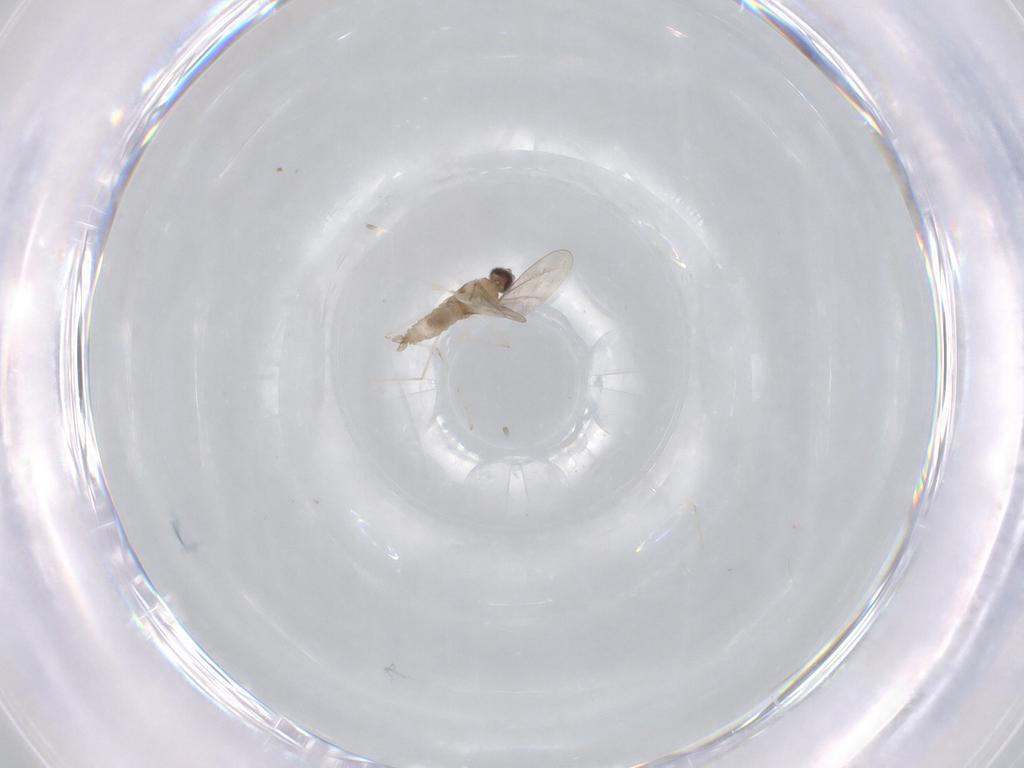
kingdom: Animalia
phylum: Arthropoda
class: Insecta
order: Diptera
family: Cecidomyiidae
